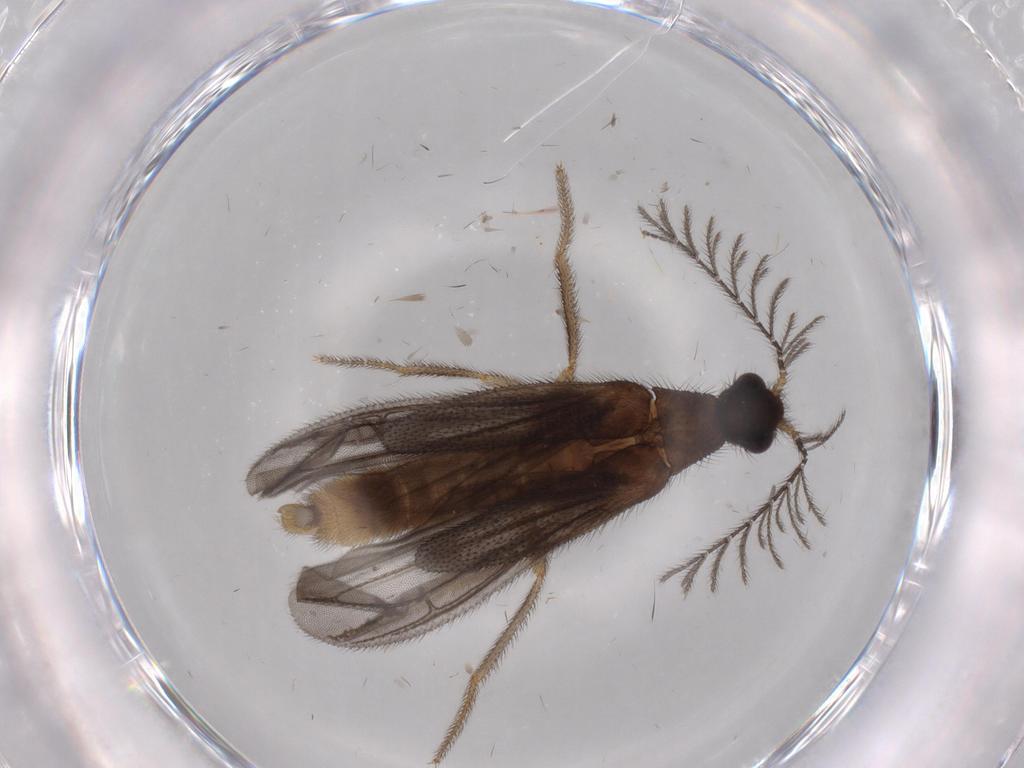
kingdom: Animalia
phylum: Arthropoda
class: Insecta
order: Coleoptera
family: Phengodidae
